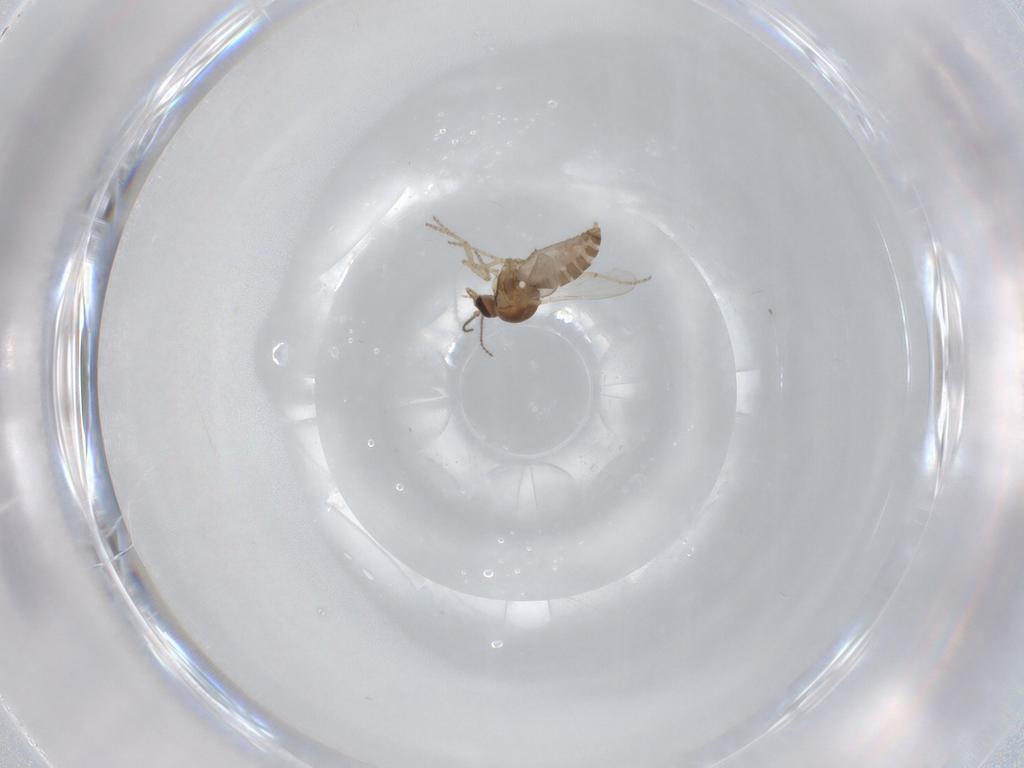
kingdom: Animalia
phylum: Arthropoda
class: Insecta
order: Diptera
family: Ceratopogonidae
